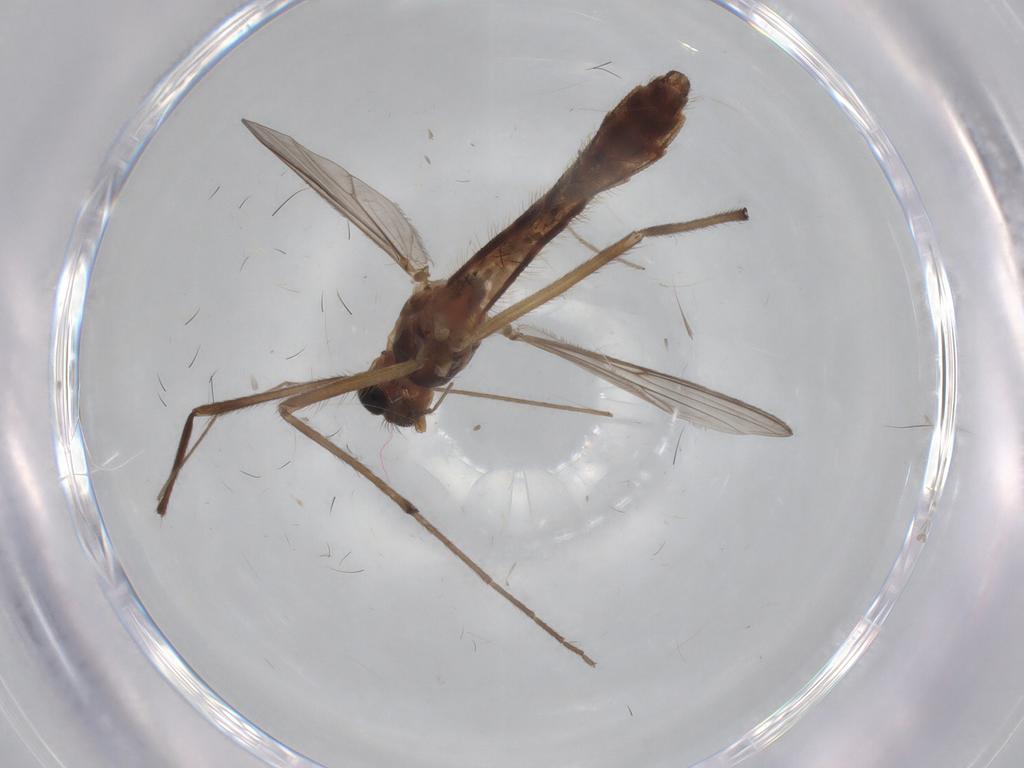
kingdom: Animalia
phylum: Arthropoda
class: Insecta
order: Diptera
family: Chironomidae
